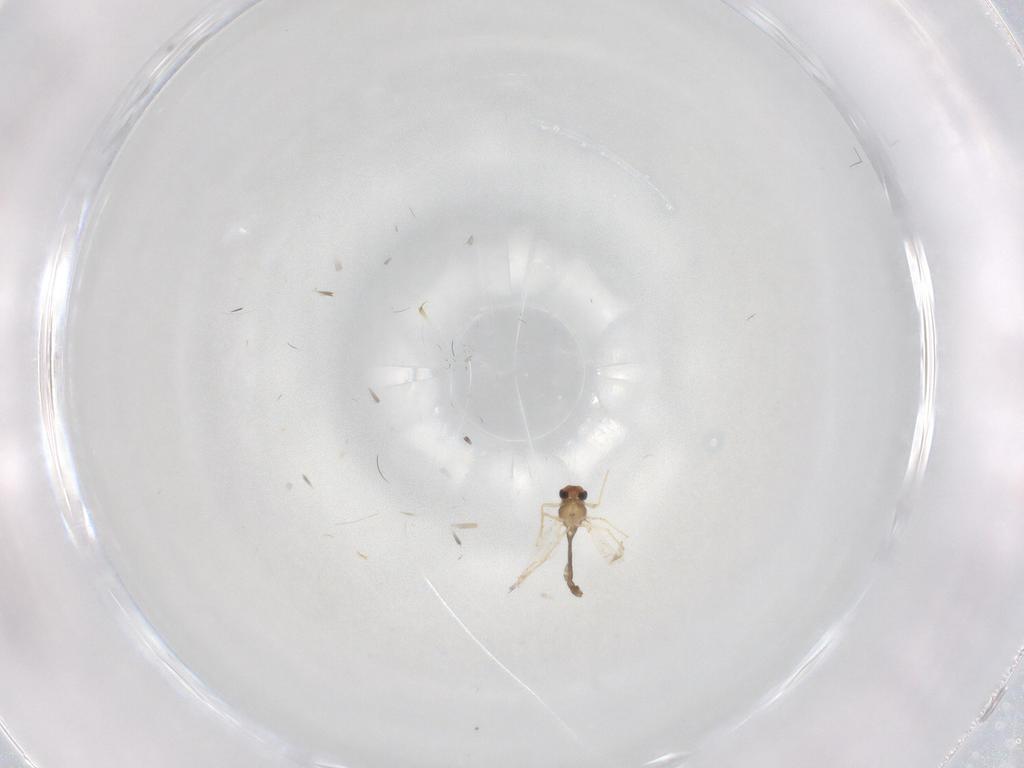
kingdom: Animalia
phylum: Arthropoda
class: Insecta
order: Diptera
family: Chironomidae
